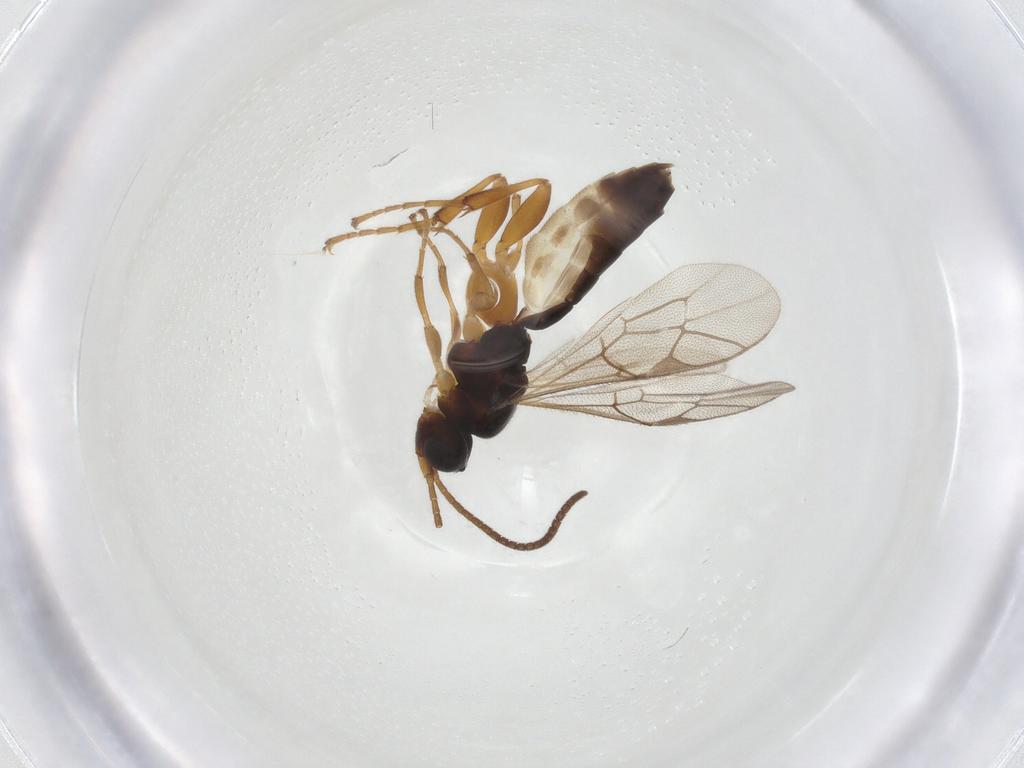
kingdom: Animalia
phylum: Arthropoda
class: Insecta
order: Hymenoptera
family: Ichneumonidae
